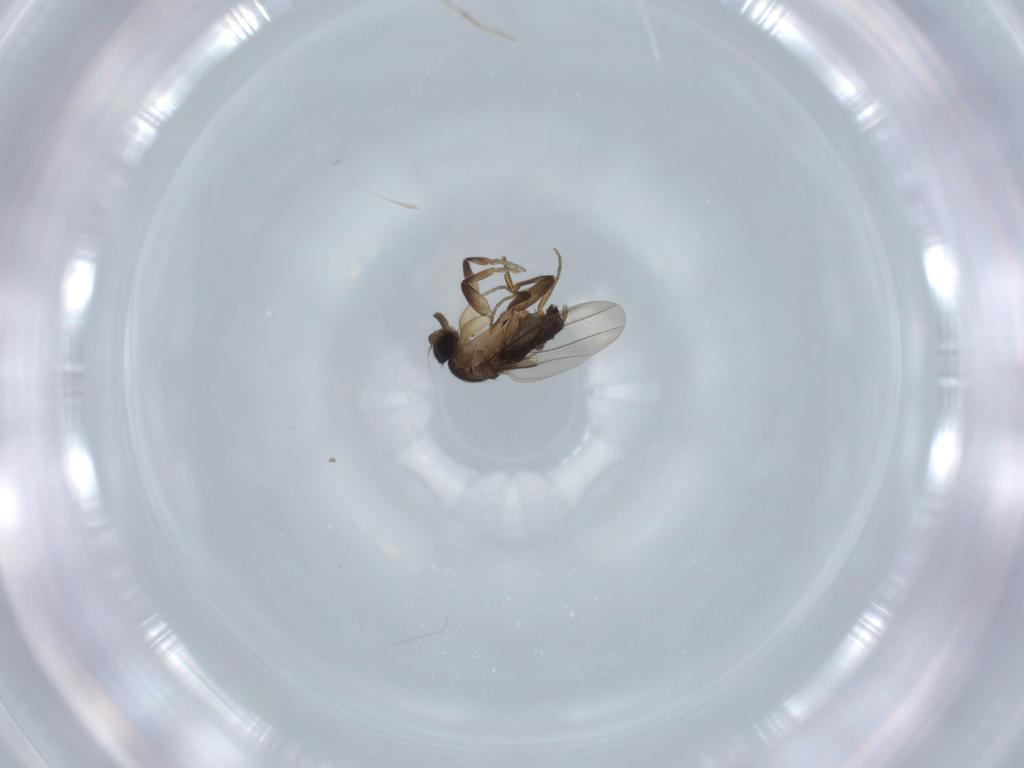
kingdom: Animalia
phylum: Arthropoda
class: Insecta
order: Diptera
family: Phoridae
